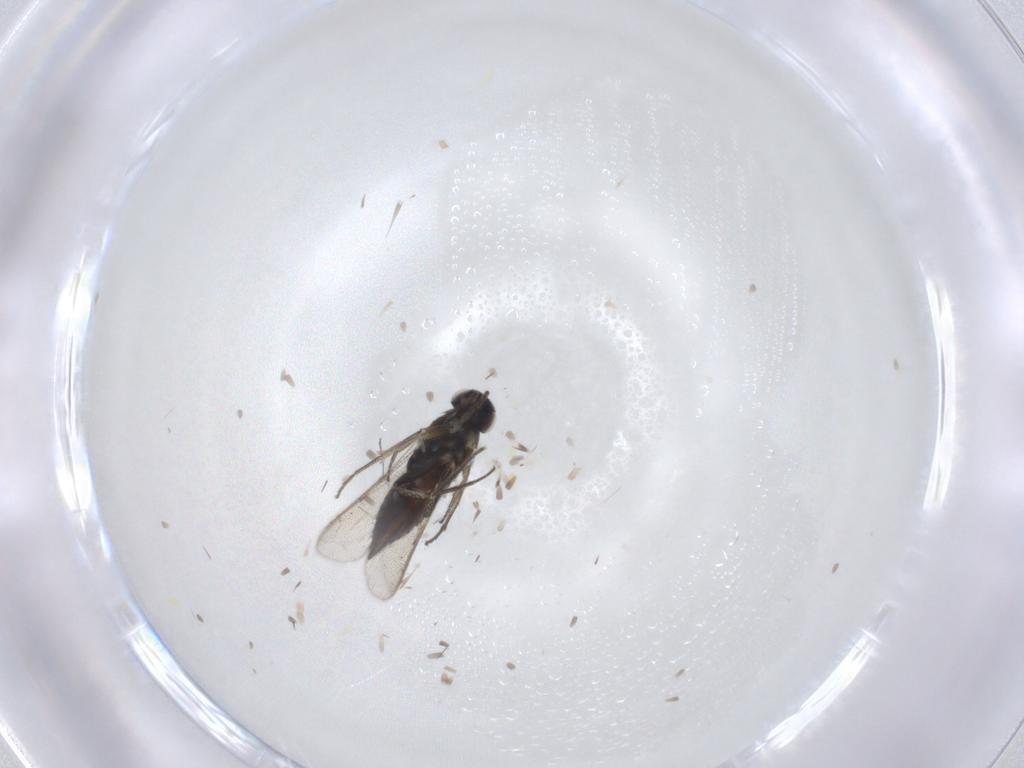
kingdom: Animalia
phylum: Arthropoda
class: Insecta
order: Hymenoptera
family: Eulophidae
